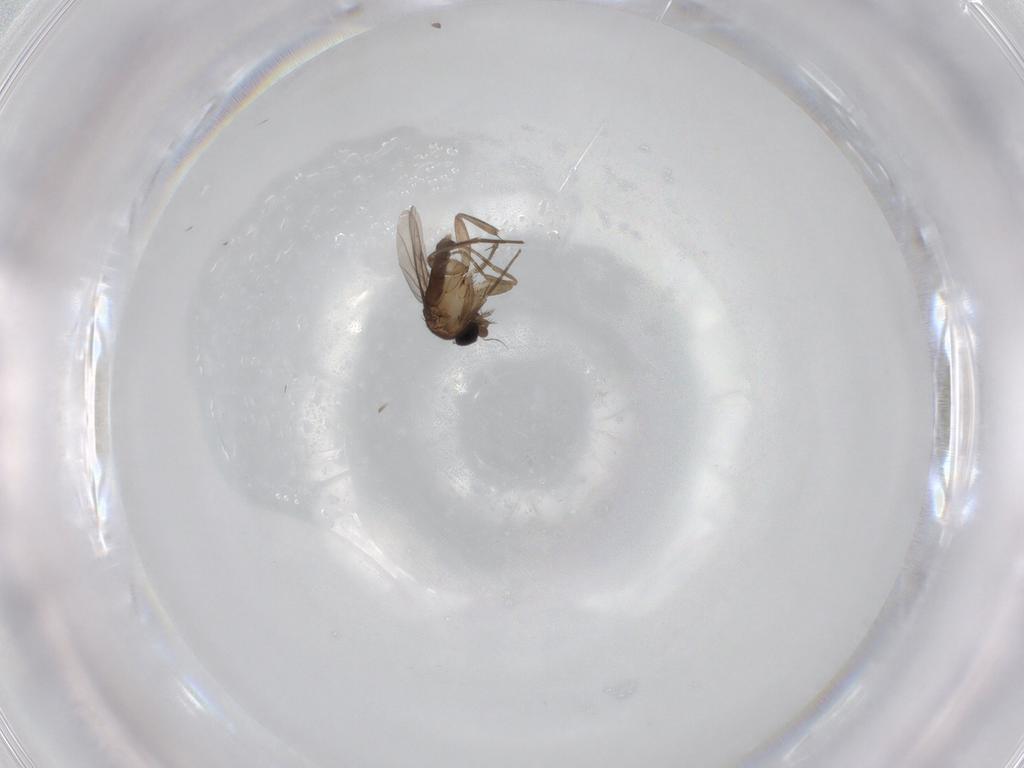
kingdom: Animalia
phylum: Arthropoda
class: Insecta
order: Diptera
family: Phoridae
